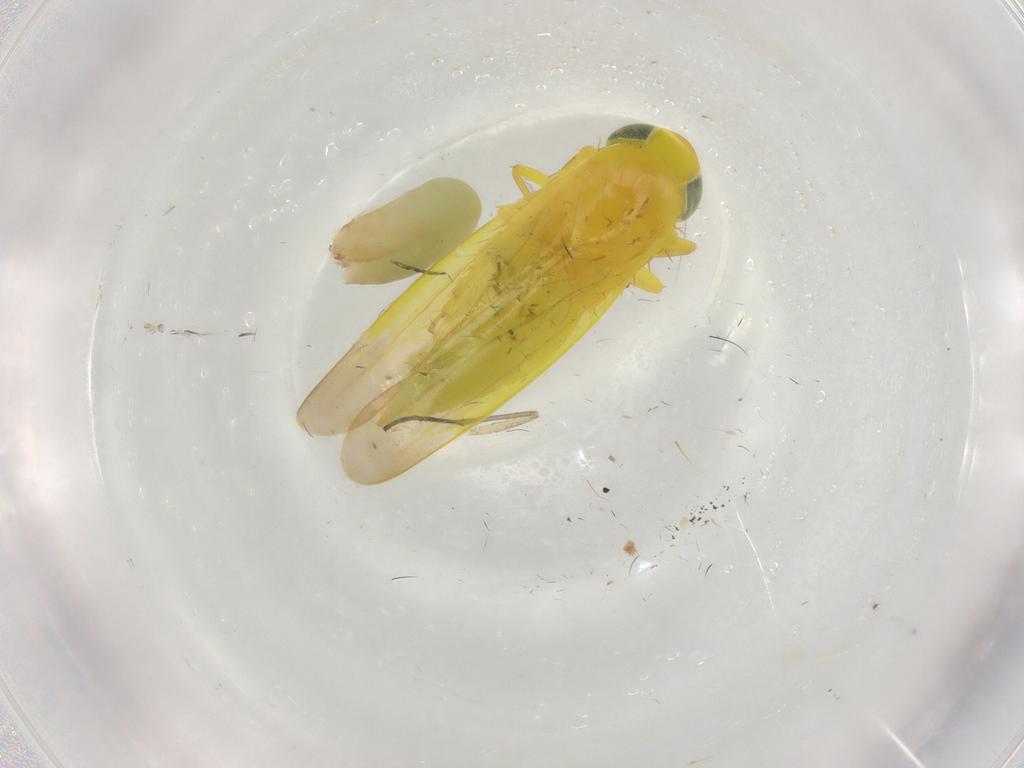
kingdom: Animalia
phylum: Arthropoda
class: Insecta
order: Hemiptera
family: Cicadellidae
